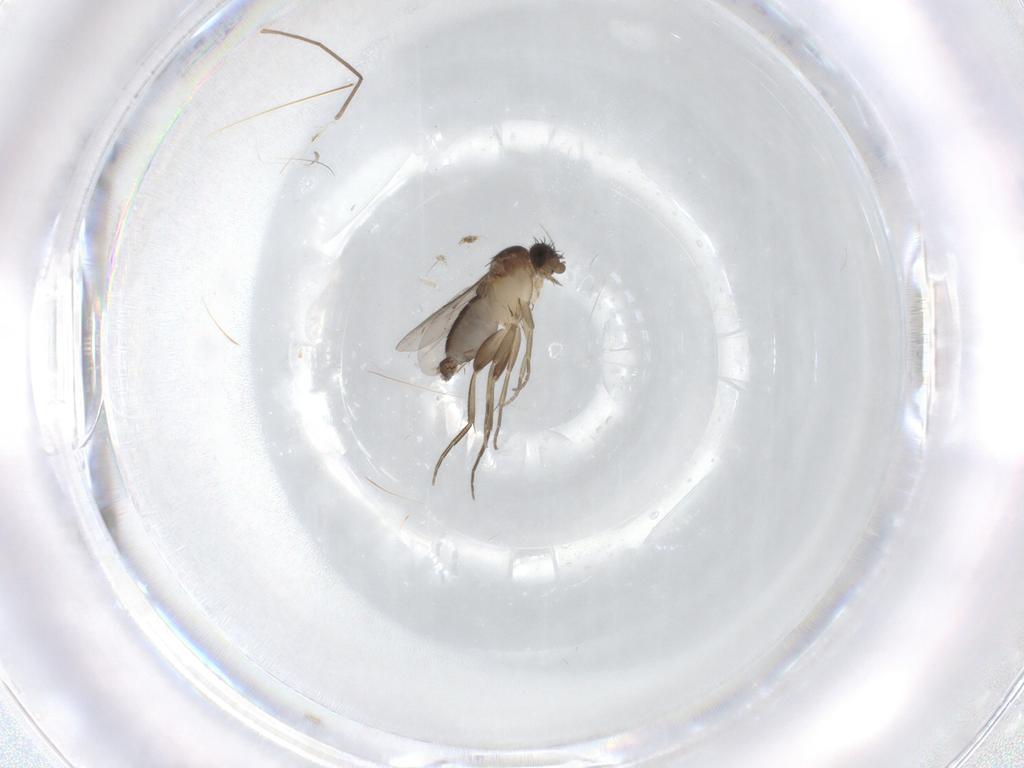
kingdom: Animalia
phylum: Arthropoda
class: Insecta
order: Diptera
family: Phoridae
